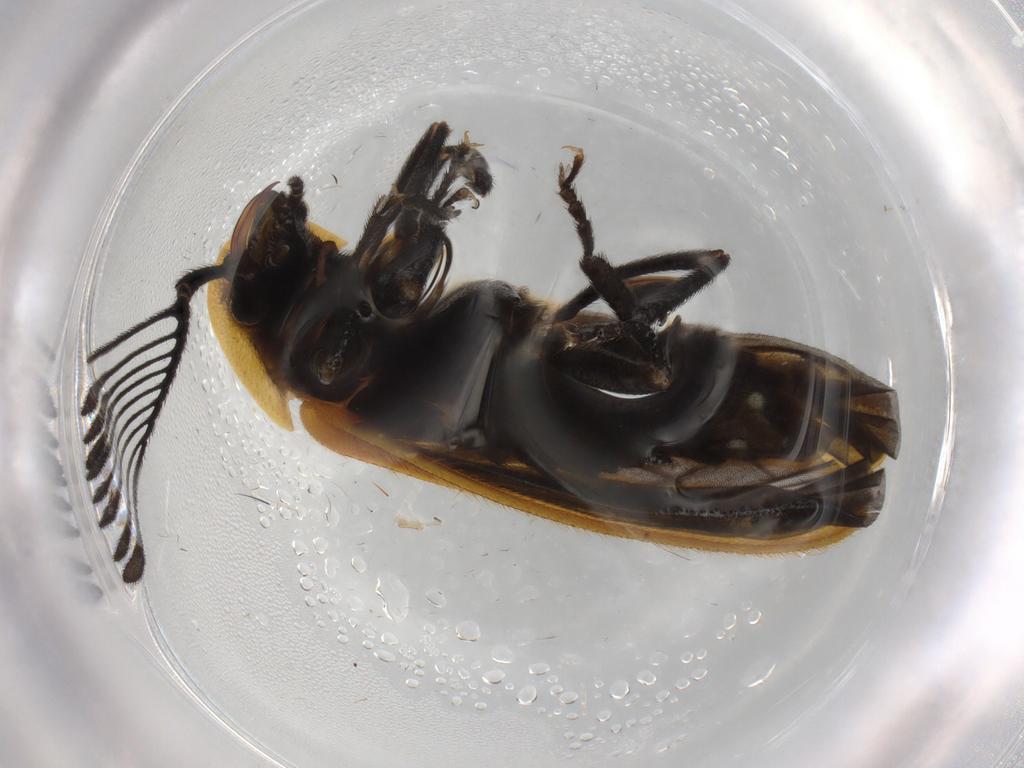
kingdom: Animalia
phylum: Arthropoda
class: Insecta
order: Coleoptera
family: Lampyridae
